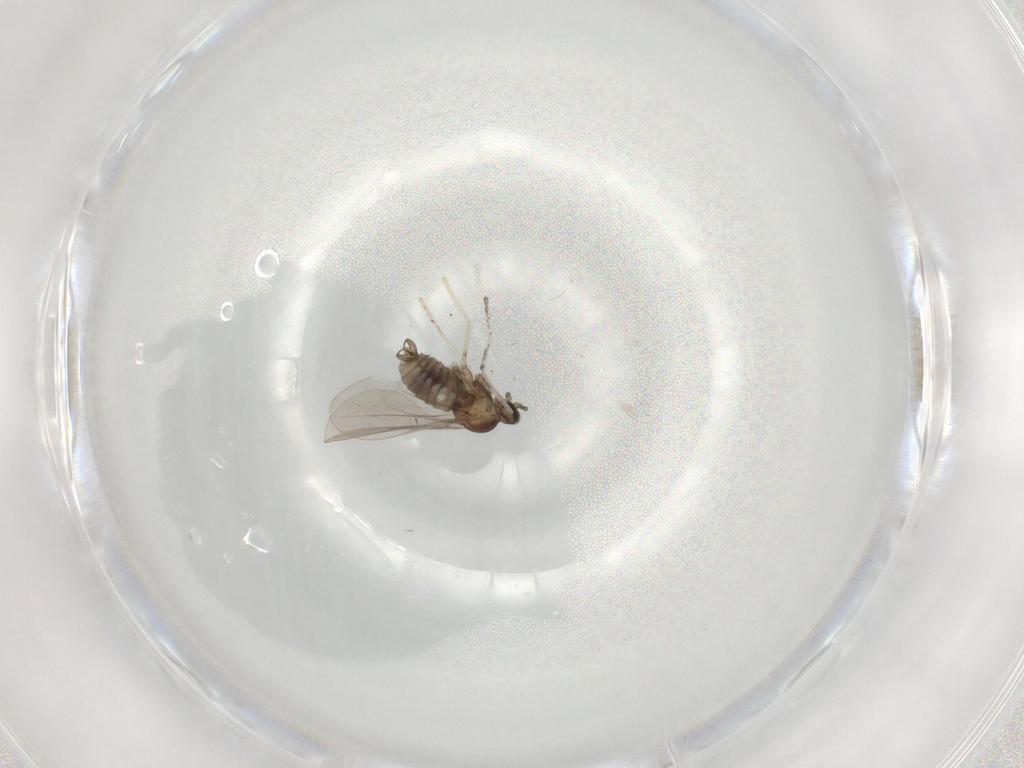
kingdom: Animalia
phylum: Arthropoda
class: Insecta
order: Diptera
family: Cecidomyiidae
